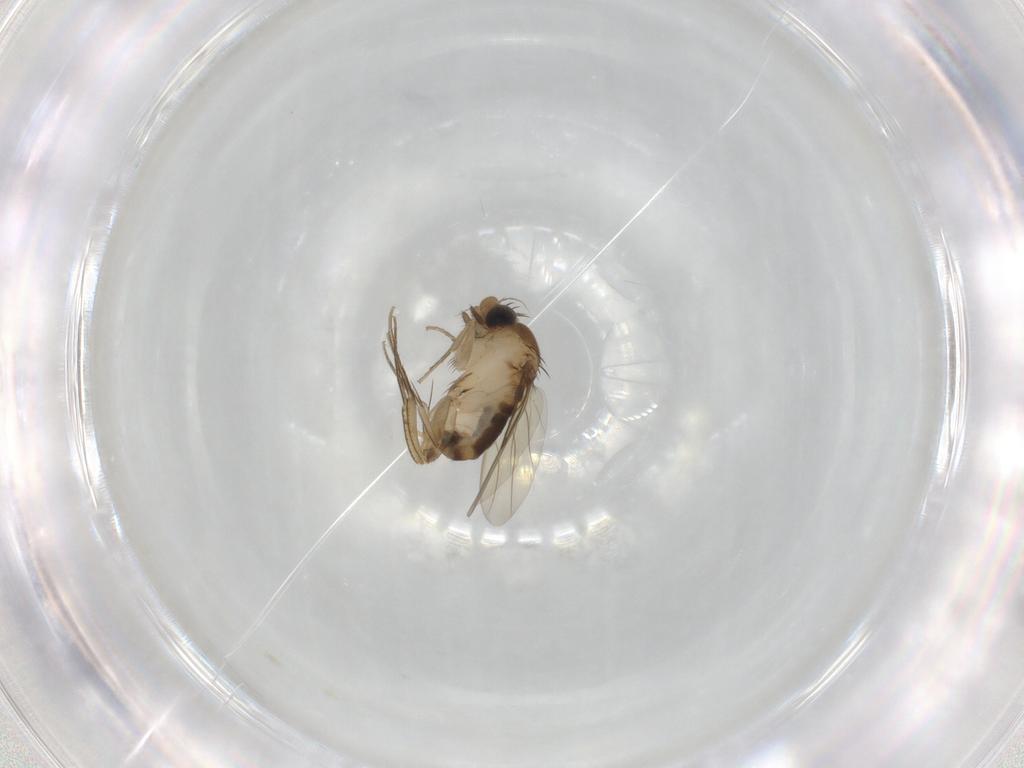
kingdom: Animalia
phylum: Arthropoda
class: Insecta
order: Diptera
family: Phoridae
